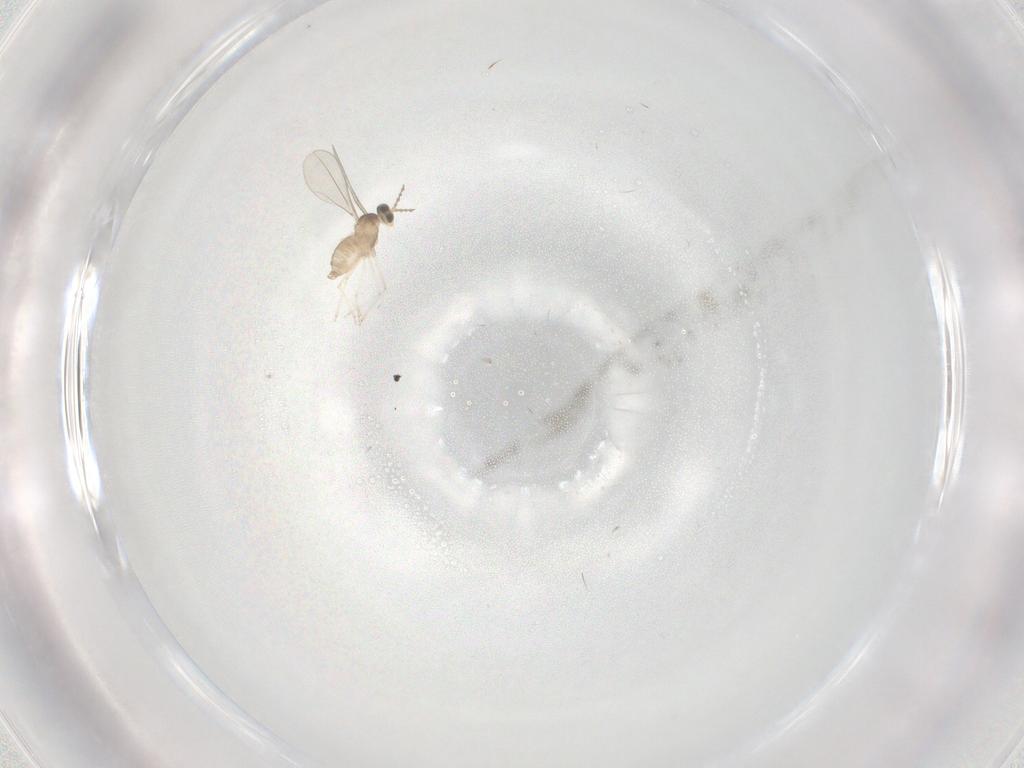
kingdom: Animalia
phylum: Arthropoda
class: Insecta
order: Diptera
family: Cecidomyiidae
